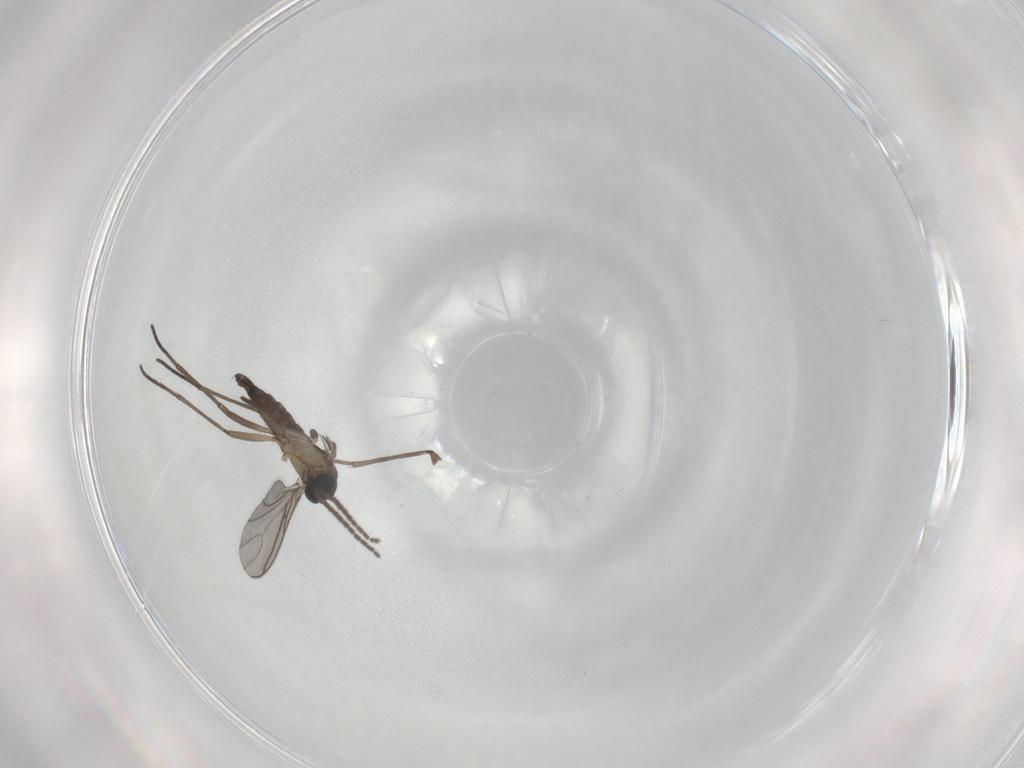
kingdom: Animalia
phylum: Arthropoda
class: Insecta
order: Diptera
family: Sciaridae
